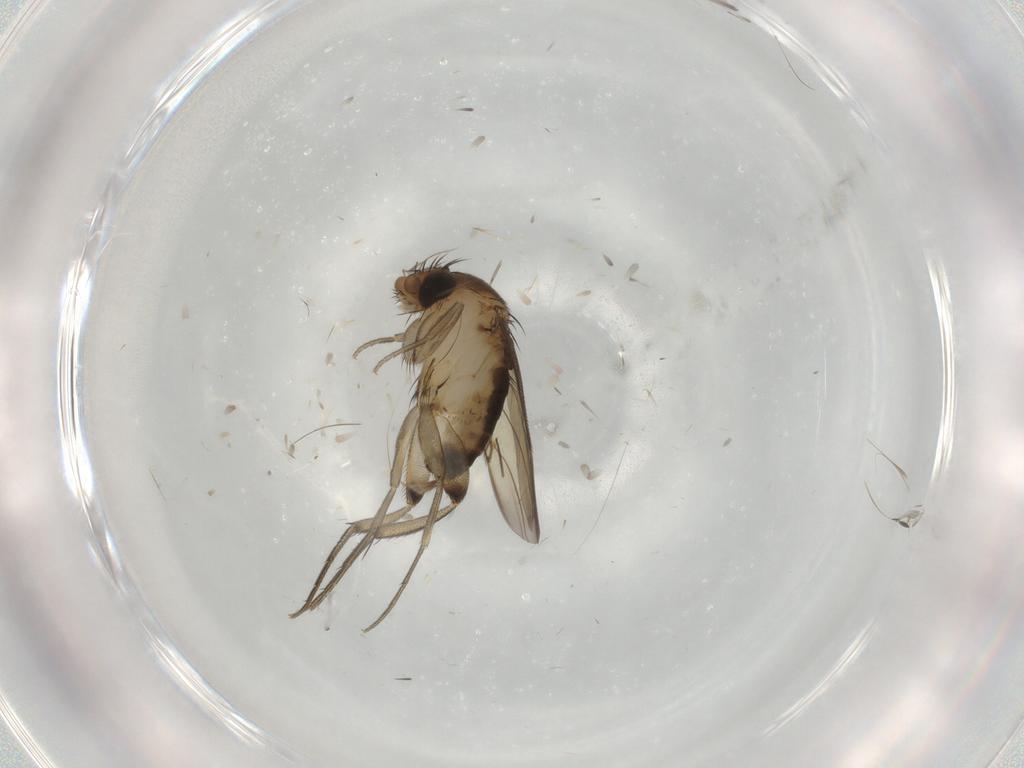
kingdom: Animalia
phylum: Arthropoda
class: Insecta
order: Diptera
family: Phoridae
